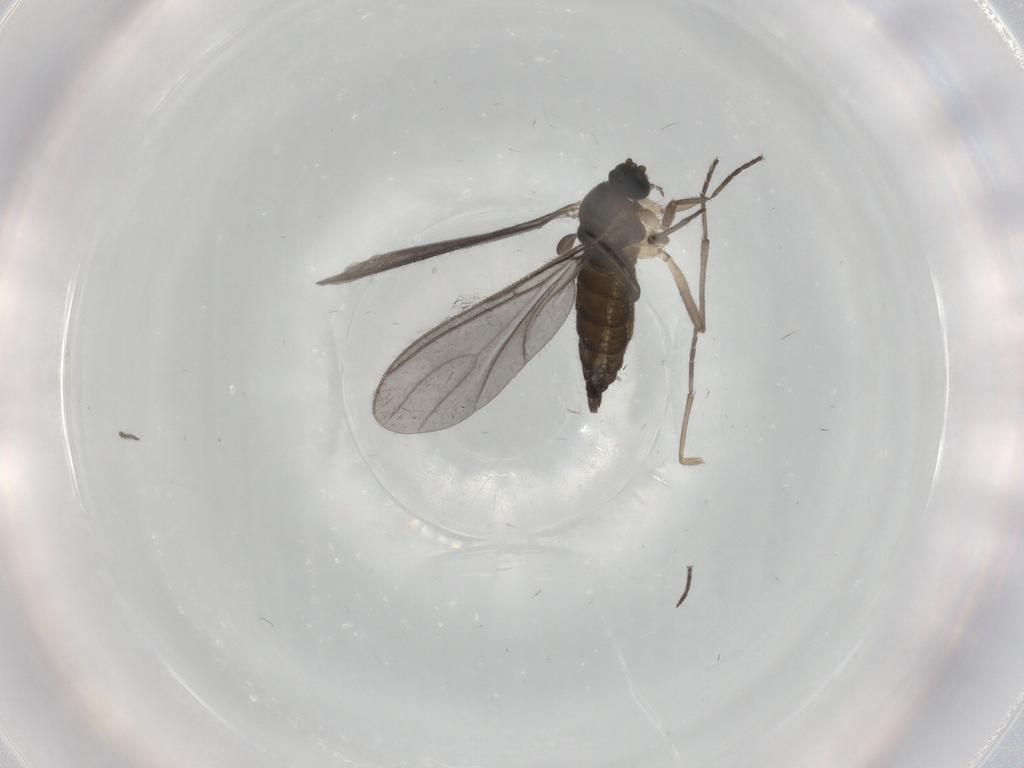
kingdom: Animalia
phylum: Arthropoda
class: Insecta
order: Diptera
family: Sciaridae
